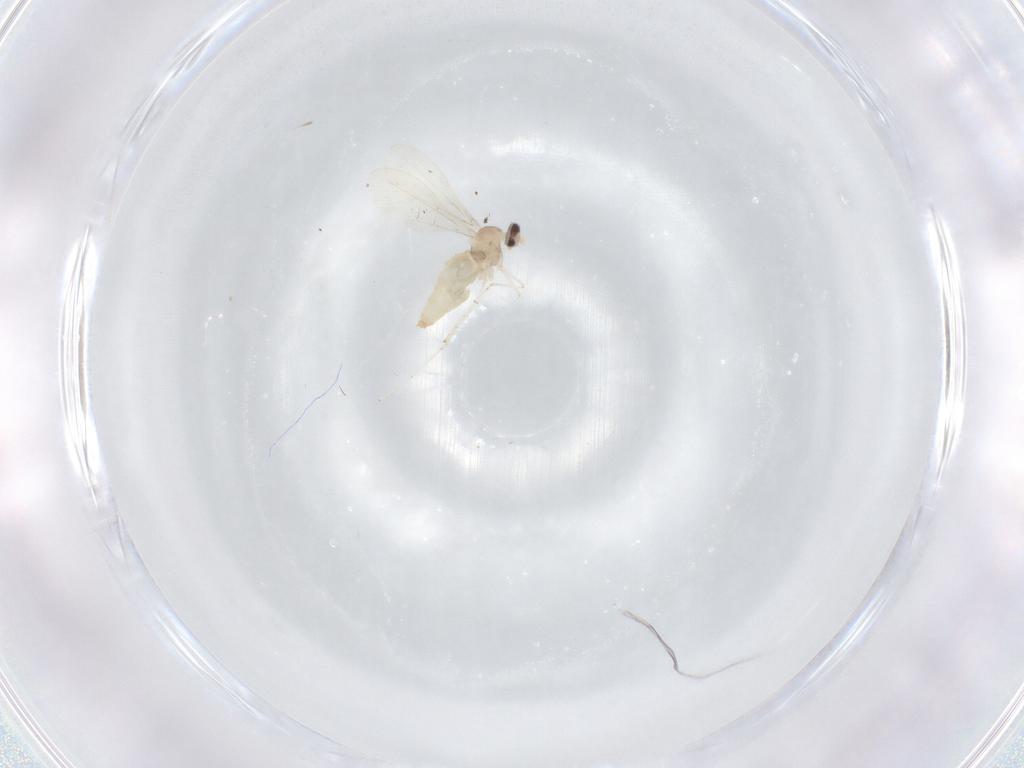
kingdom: Animalia
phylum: Arthropoda
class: Insecta
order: Diptera
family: Cecidomyiidae
